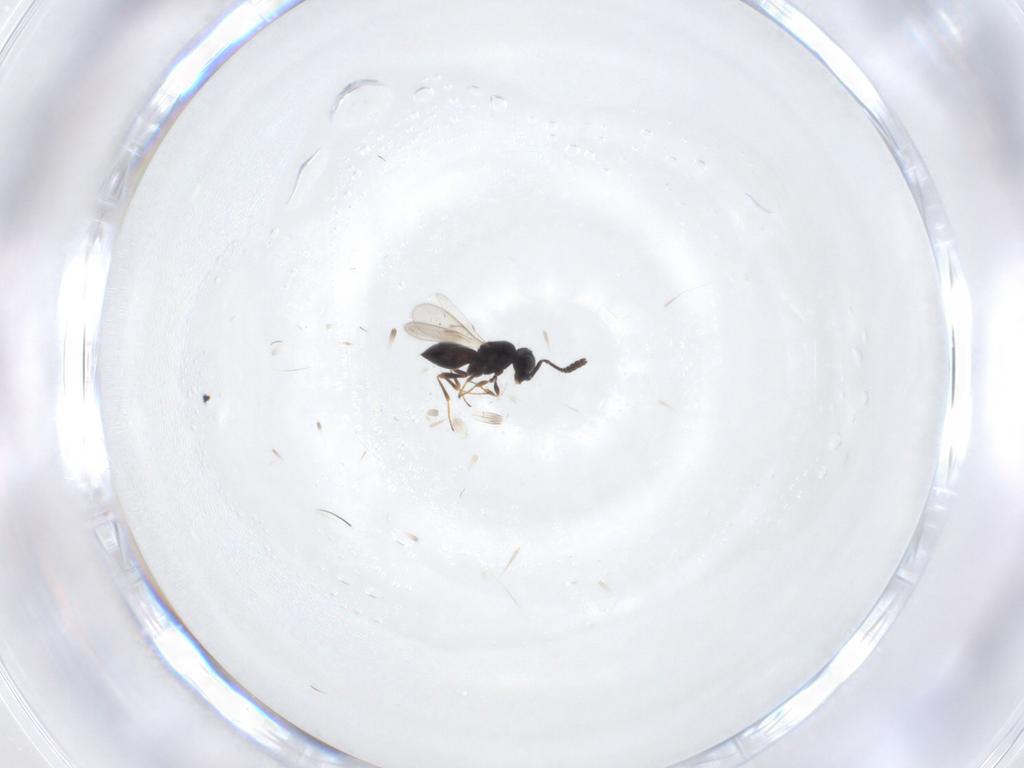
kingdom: Animalia
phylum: Arthropoda
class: Insecta
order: Hymenoptera
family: Scelionidae
